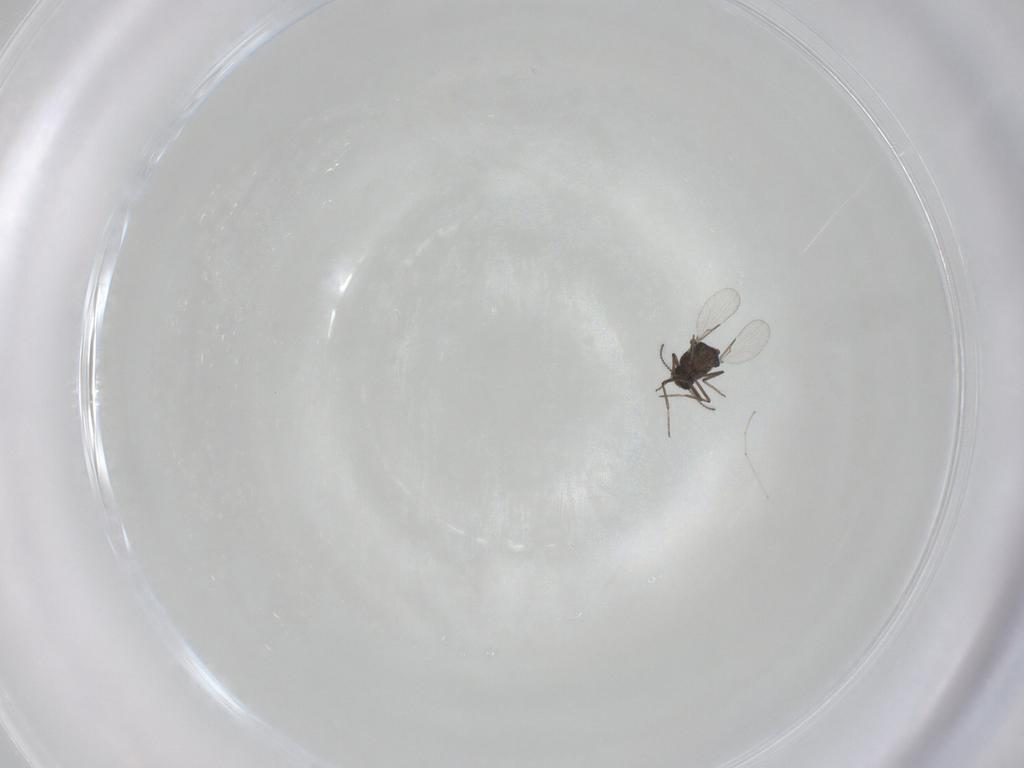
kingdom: Animalia
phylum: Arthropoda
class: Insecta
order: Diptera
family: Ceratopogonidae
